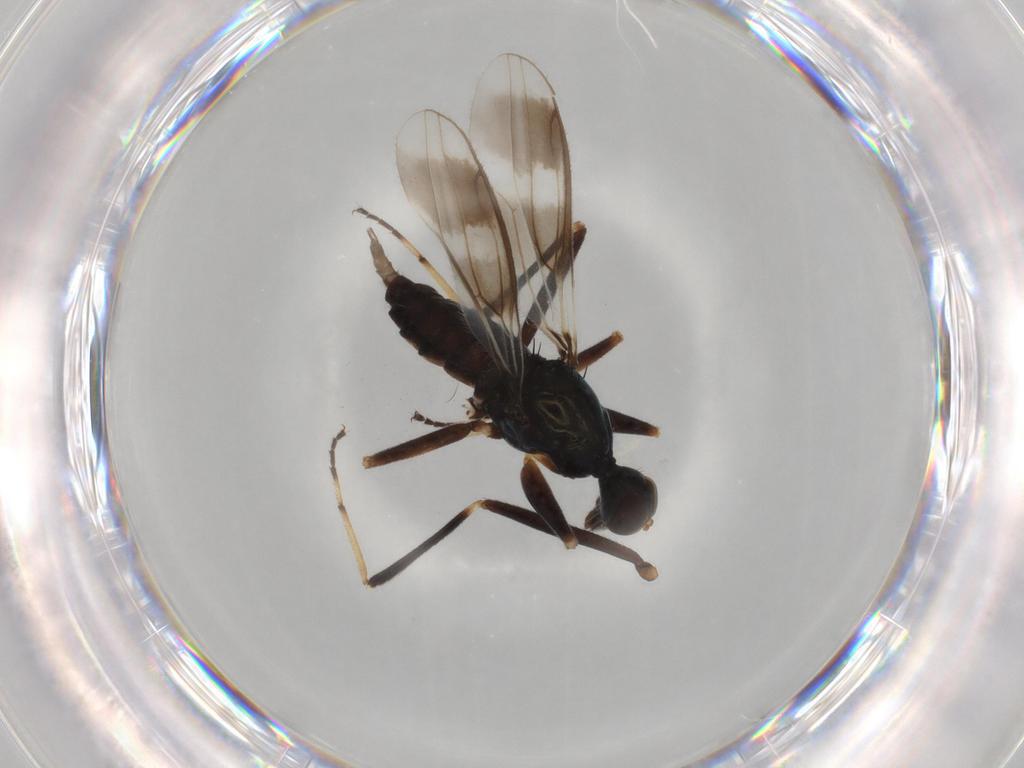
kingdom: Animalia
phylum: Arthropoda
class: Insecta
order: Diptera
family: Hybotidae
